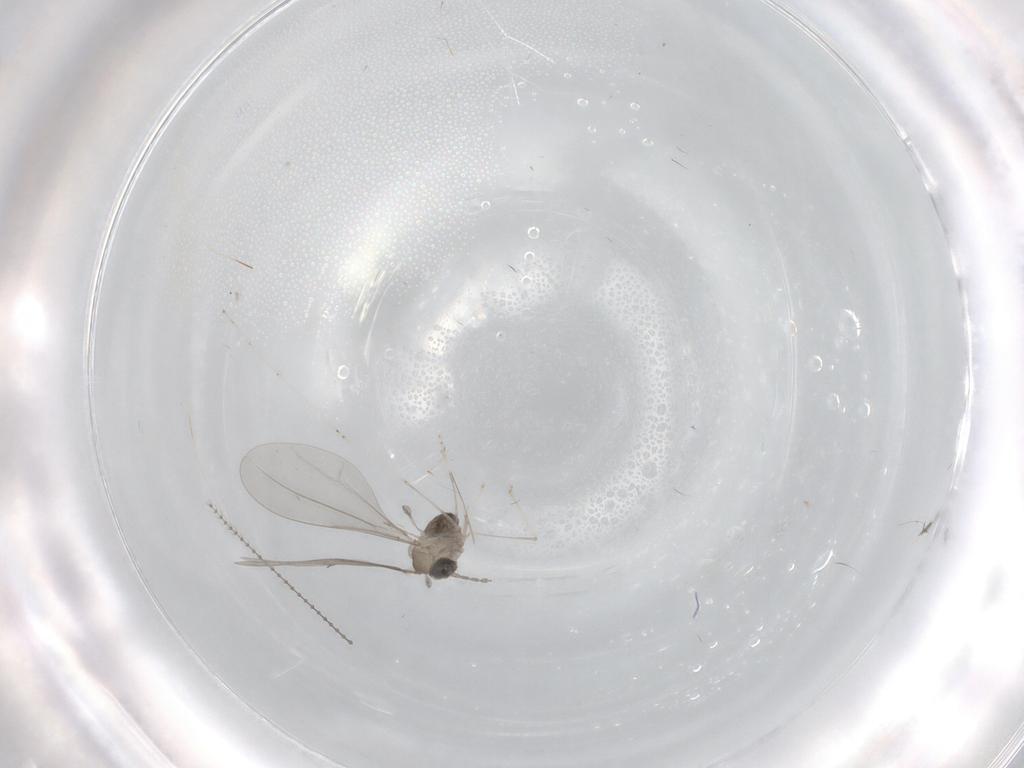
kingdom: Animalia
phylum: Arthropoda
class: Insecta
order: Diptera
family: Cecidomyiidae
